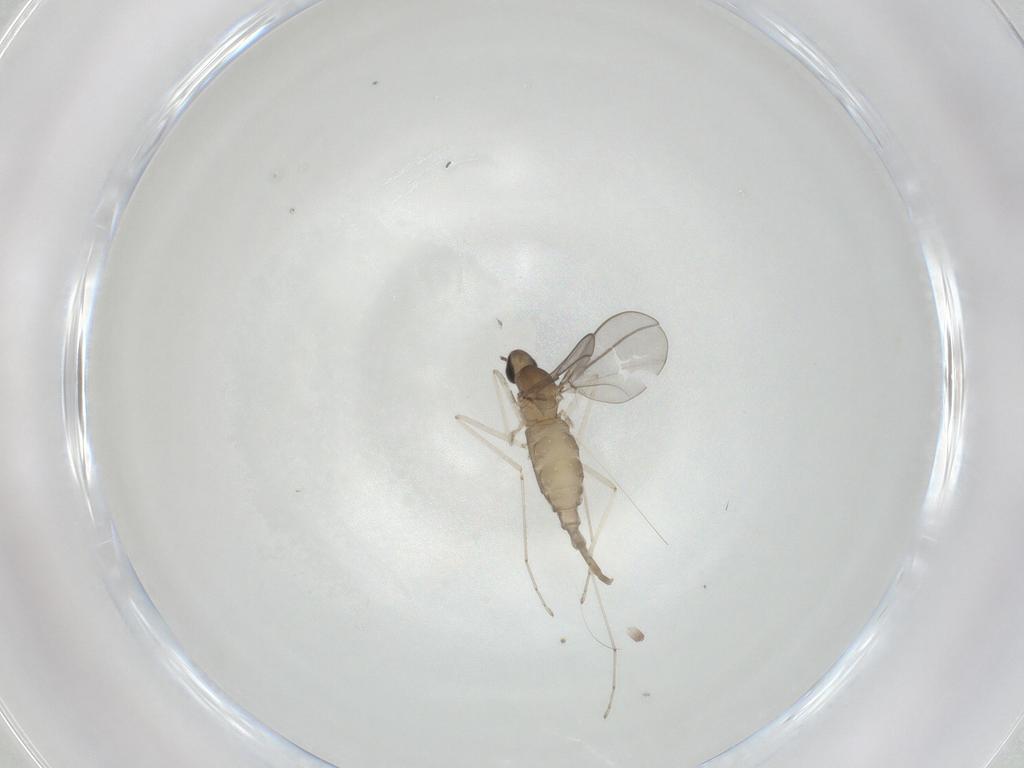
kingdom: Animalia
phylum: Arthropoda
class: Insecta
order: Diptera
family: Cecidomyiidae
